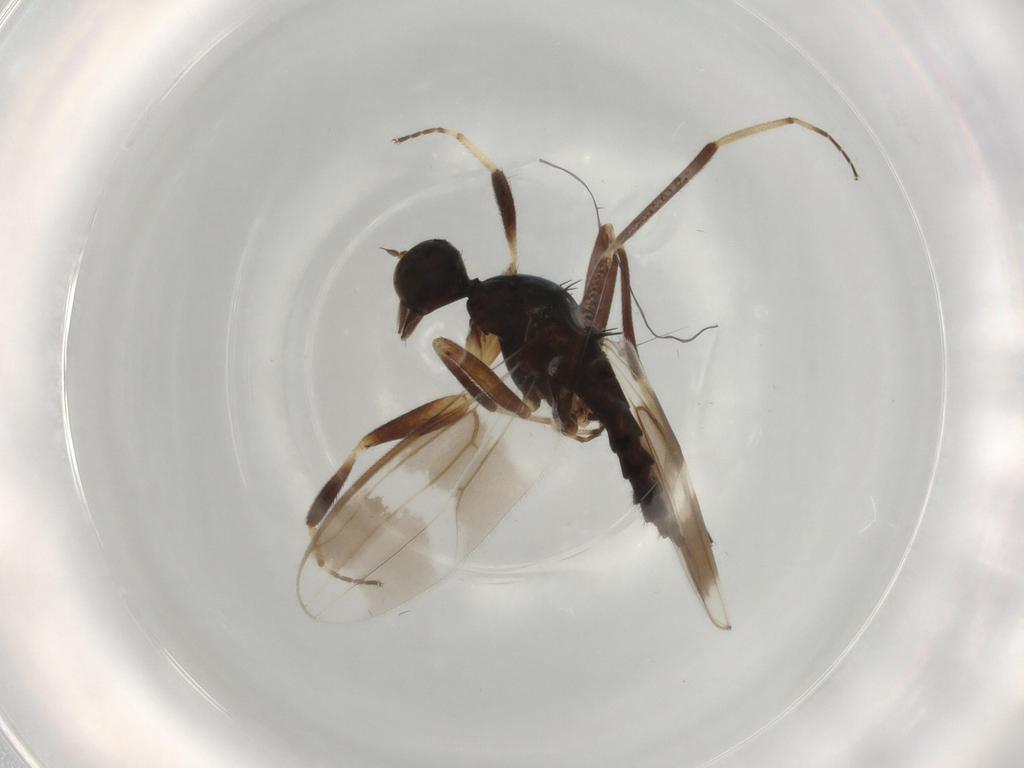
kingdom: Animalia
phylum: Arthropoda
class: Insecta
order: Diptera
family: Hybotidae
